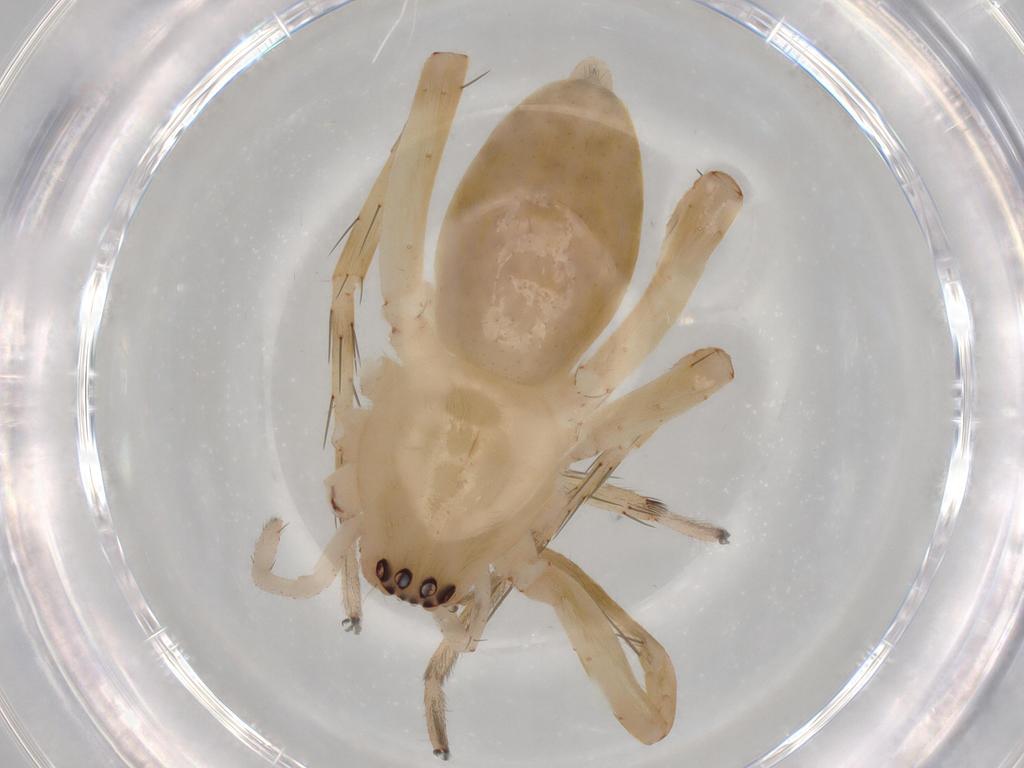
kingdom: Animalia
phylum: Arthropoda
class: Arachnida
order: Araneae
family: Anyphaenidae
